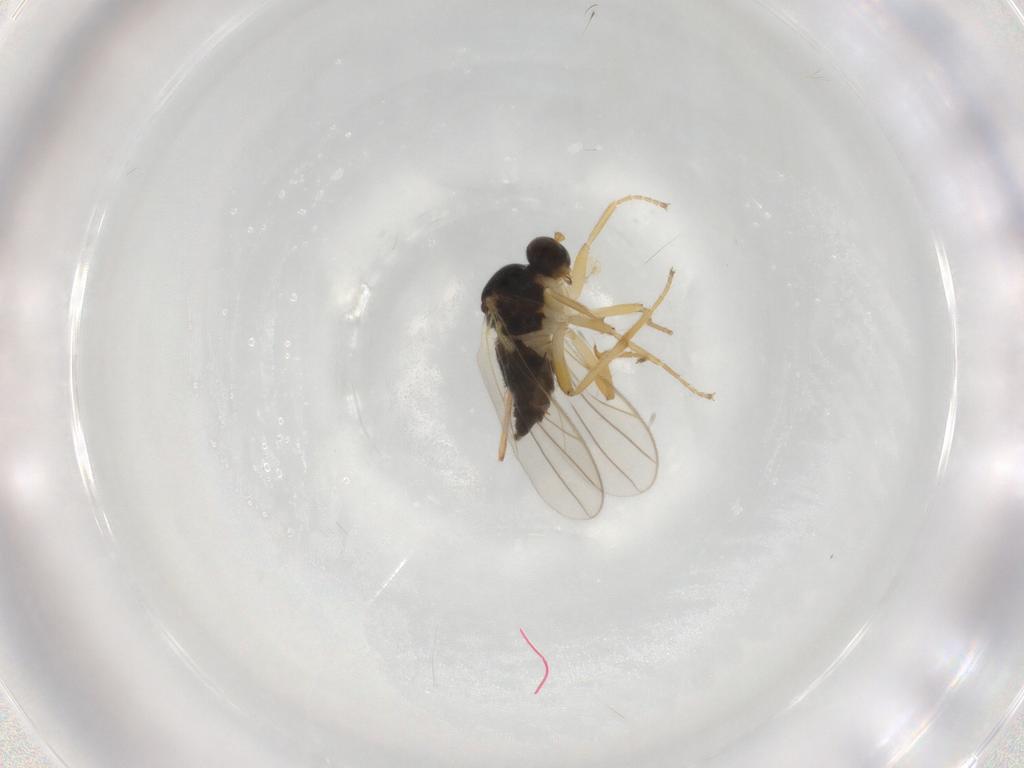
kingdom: Animalia
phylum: Arthropoda
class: Insecta
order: Diptera
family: Hybotidae
